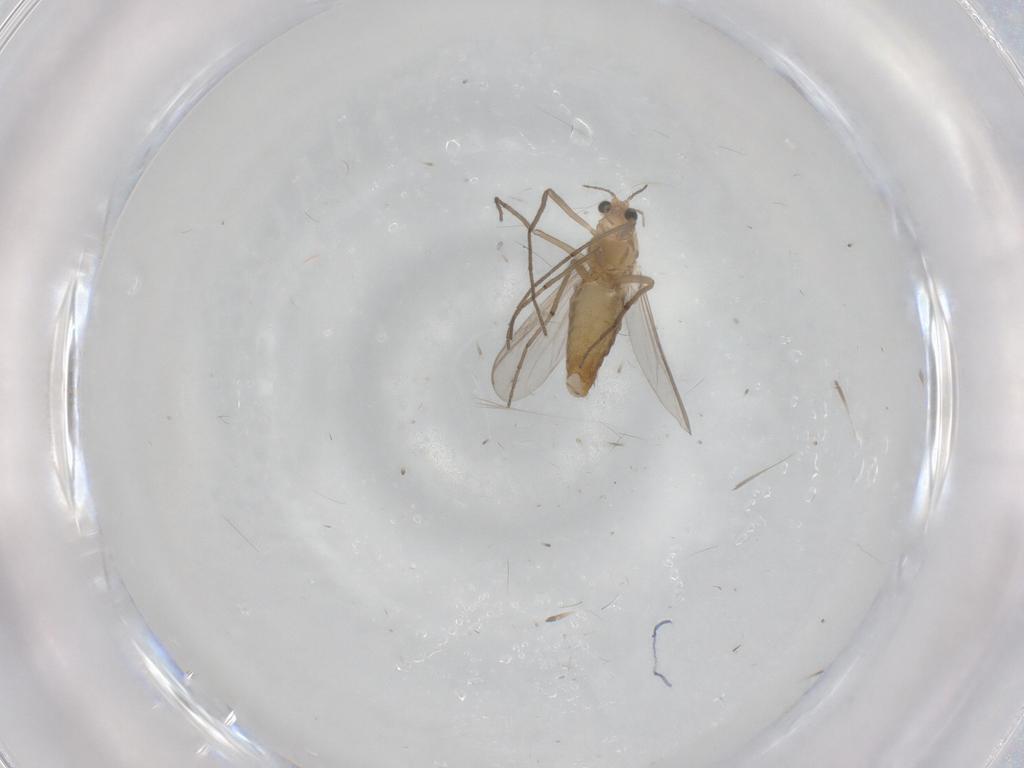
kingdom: Animalia
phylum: Arthropoda
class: Insecta
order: Diptera
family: Chironomidae
